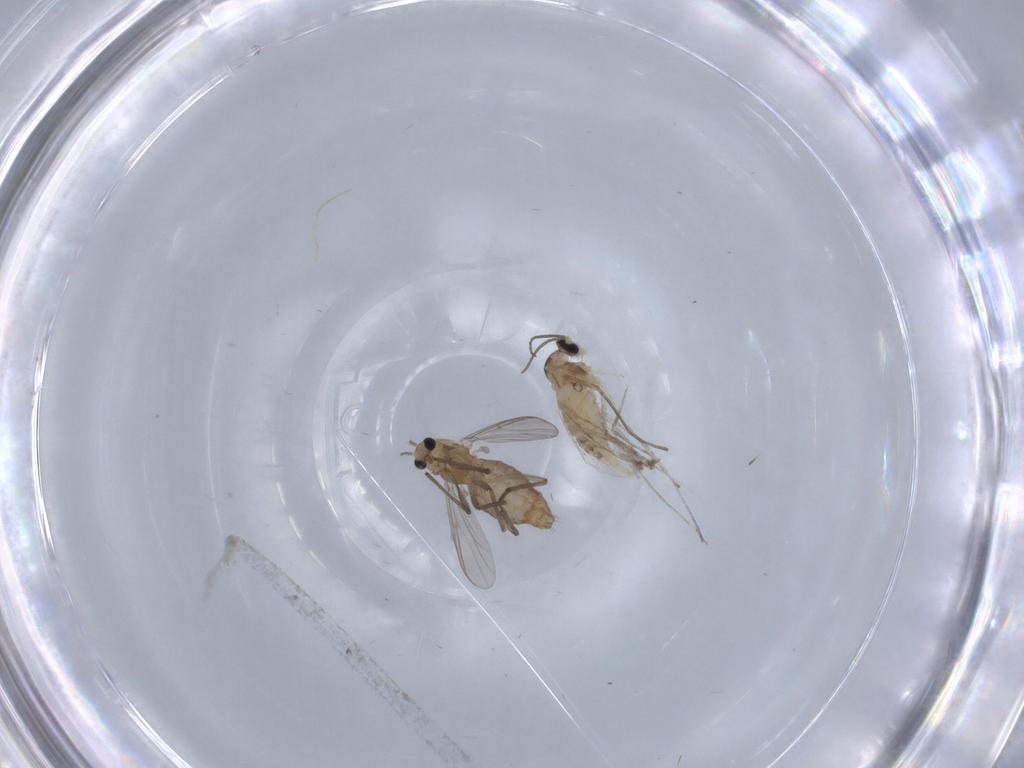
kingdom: Animalia
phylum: Arthropoda
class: Insecta
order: Diptera
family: Chironomidae
